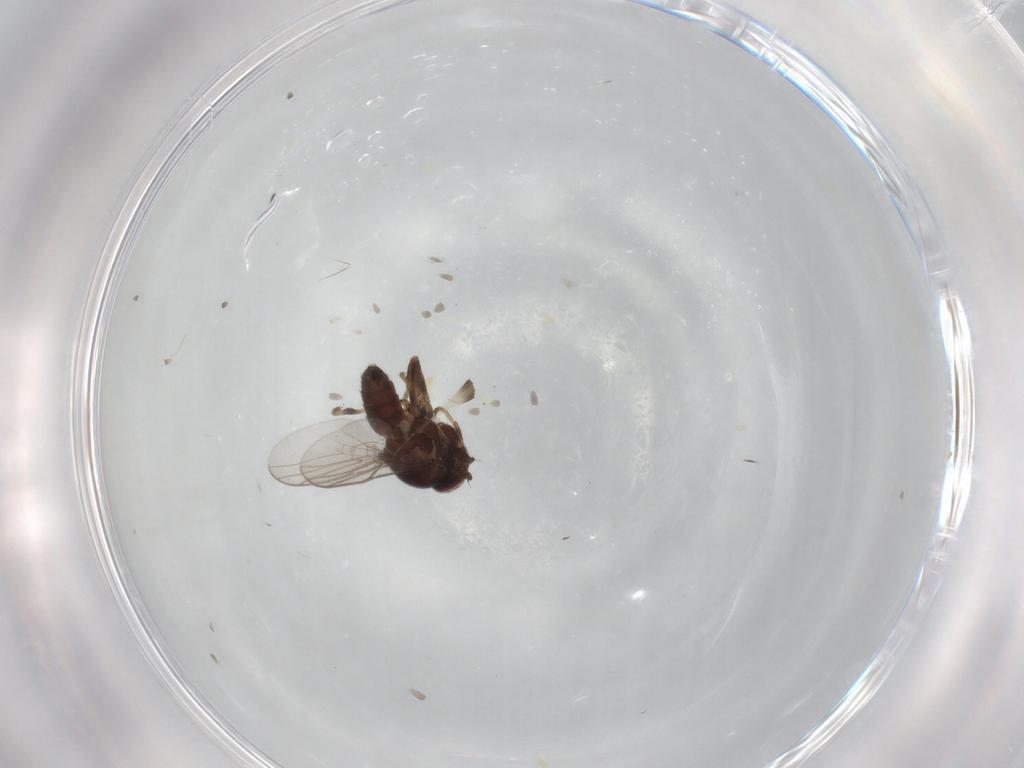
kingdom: Animalia
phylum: Arthropoda
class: Insecta
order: Diptera
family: Chloropidae
